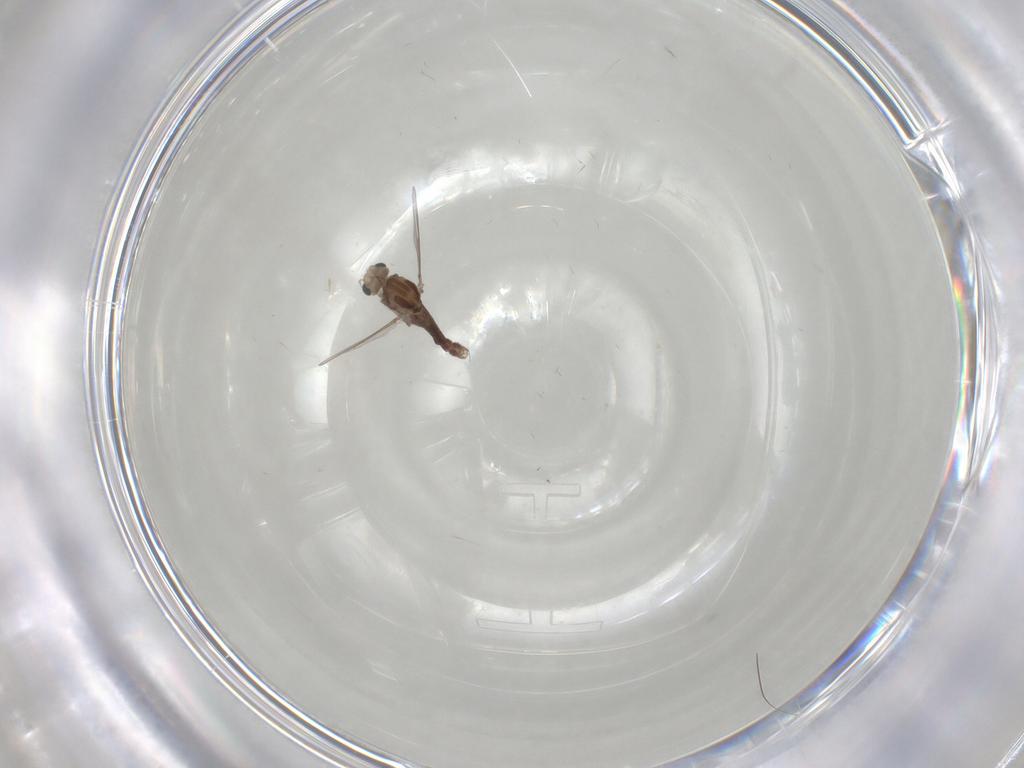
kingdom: Animalia
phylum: Arthropoda
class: Insecta
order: Diptera
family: Chironomidae
